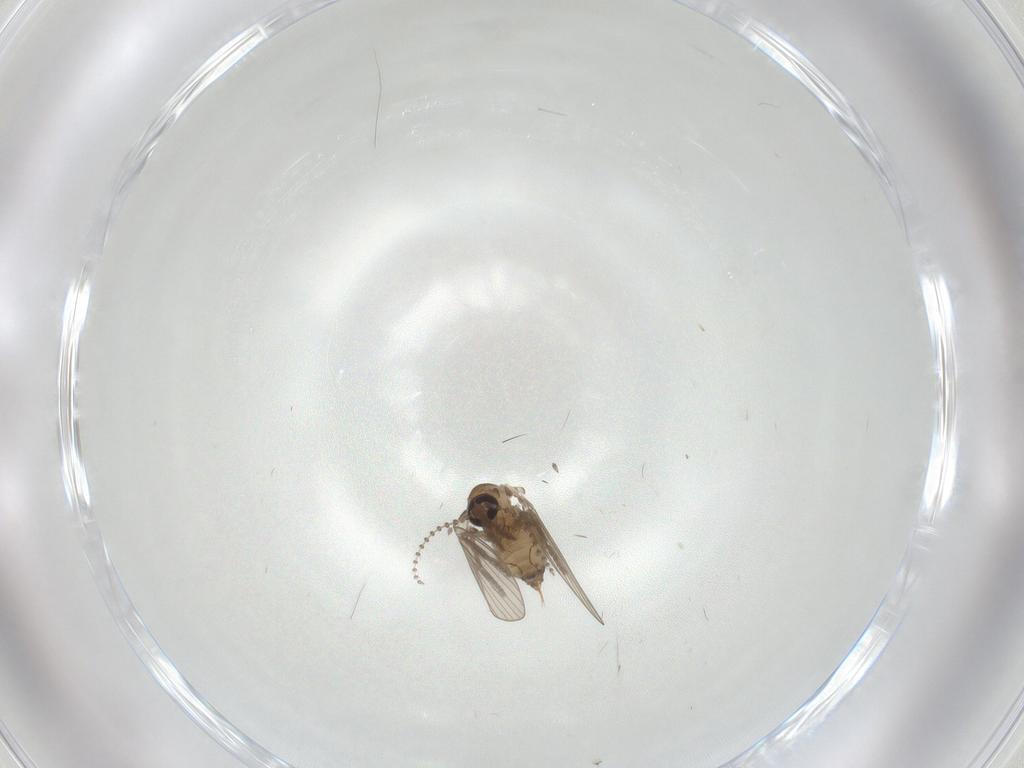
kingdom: Animalia
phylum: Arthropoda
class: Insecta
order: Diptera
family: Psychodidae
